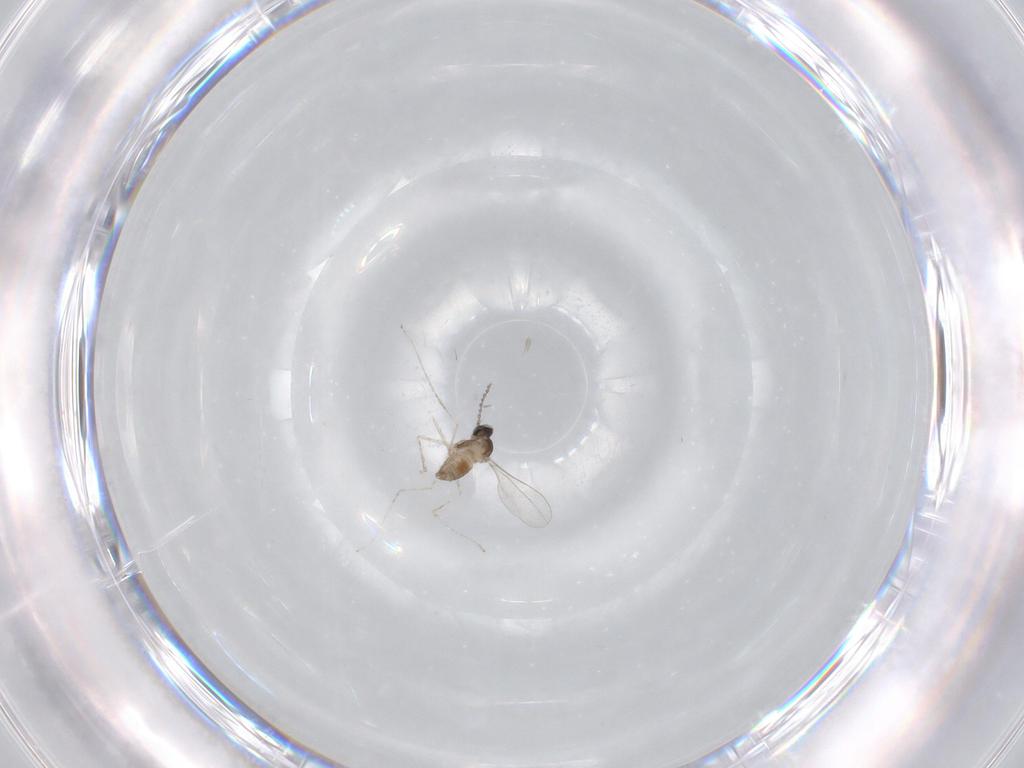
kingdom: Animalia
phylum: Arthropoda
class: Insecta
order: Diptera
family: Cecidomyiidae
